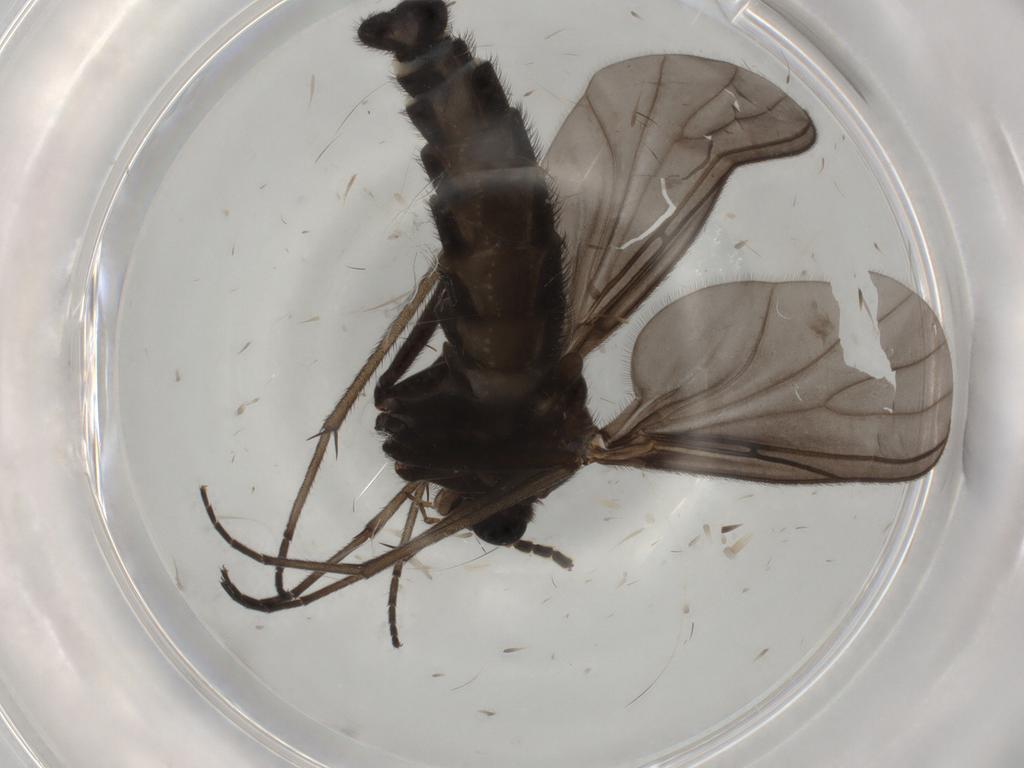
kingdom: Animalia
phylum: Arthropoda
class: Insecta
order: Diptera
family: Sciaridae
